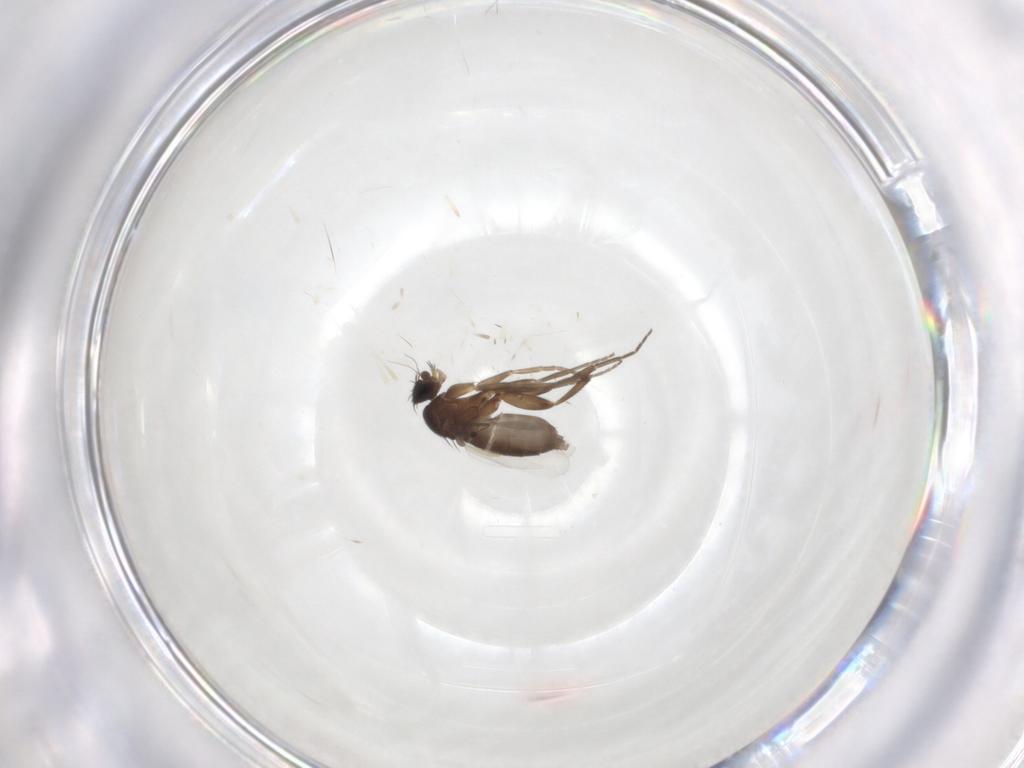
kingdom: Animalia
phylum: Arthropoda
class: Insecta
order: Diptera
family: Phoridae
